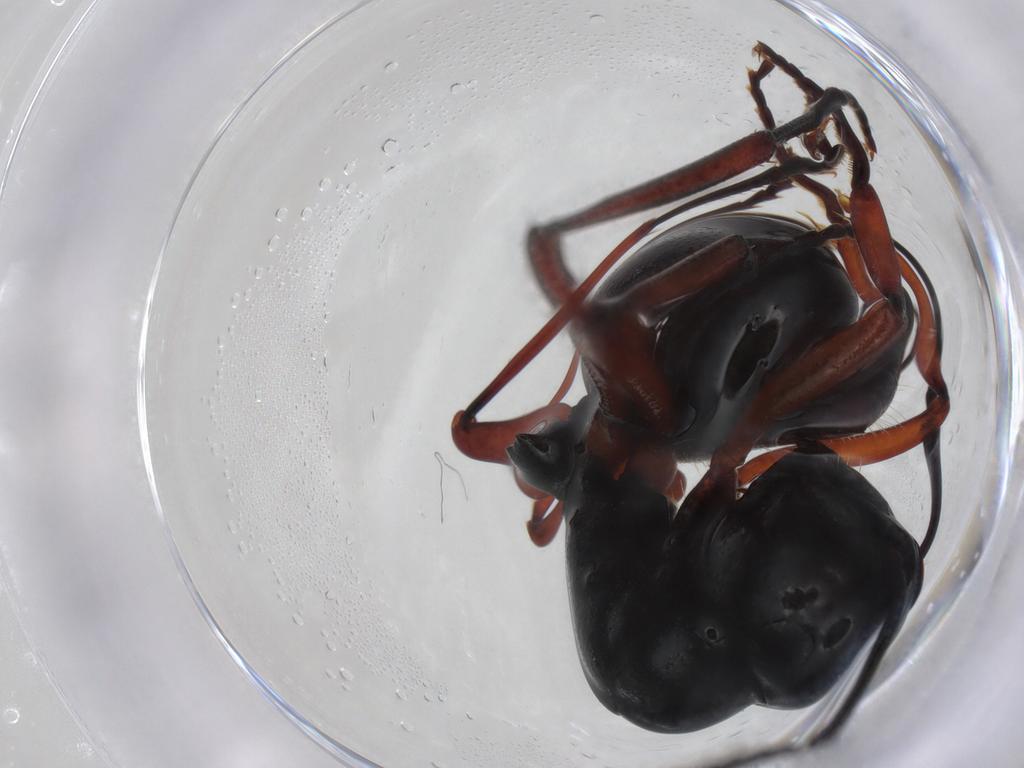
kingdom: Animalia
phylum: Arthropoda
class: Insecta
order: Hymenoptera
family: Formicidae
